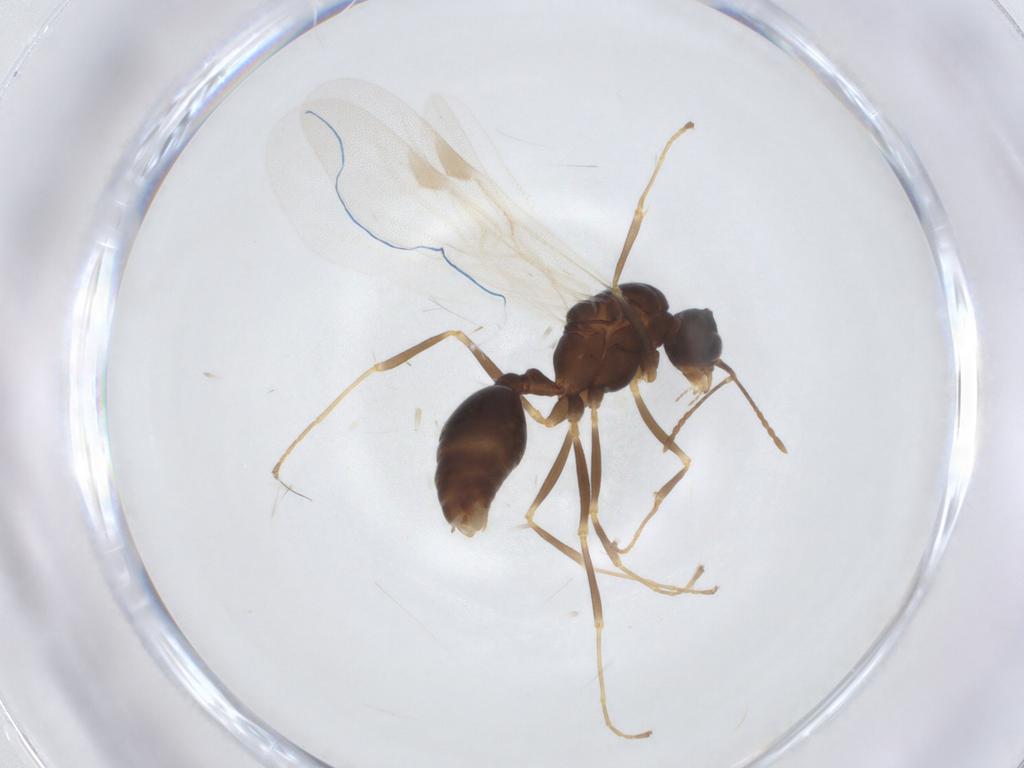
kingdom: Animalia
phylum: Arthropoda
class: Insecta
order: Hymenoptera
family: Formicidae
